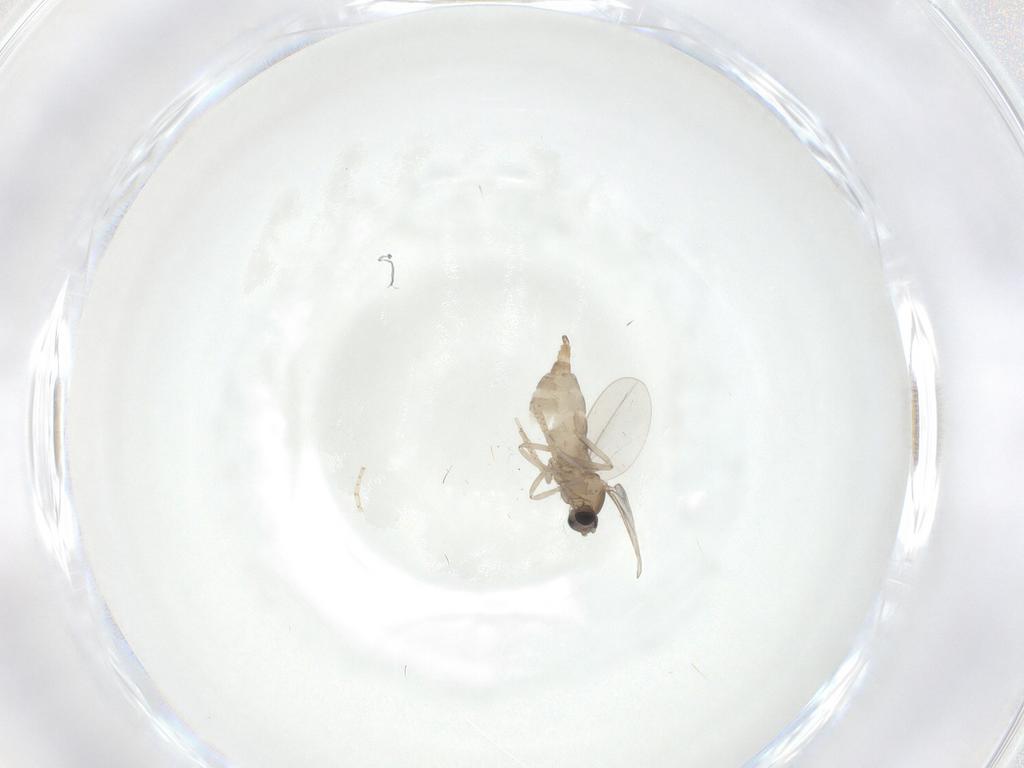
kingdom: Animalia
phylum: Arthropoda
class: Insecta
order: Diptera
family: Cecidomyiidae
